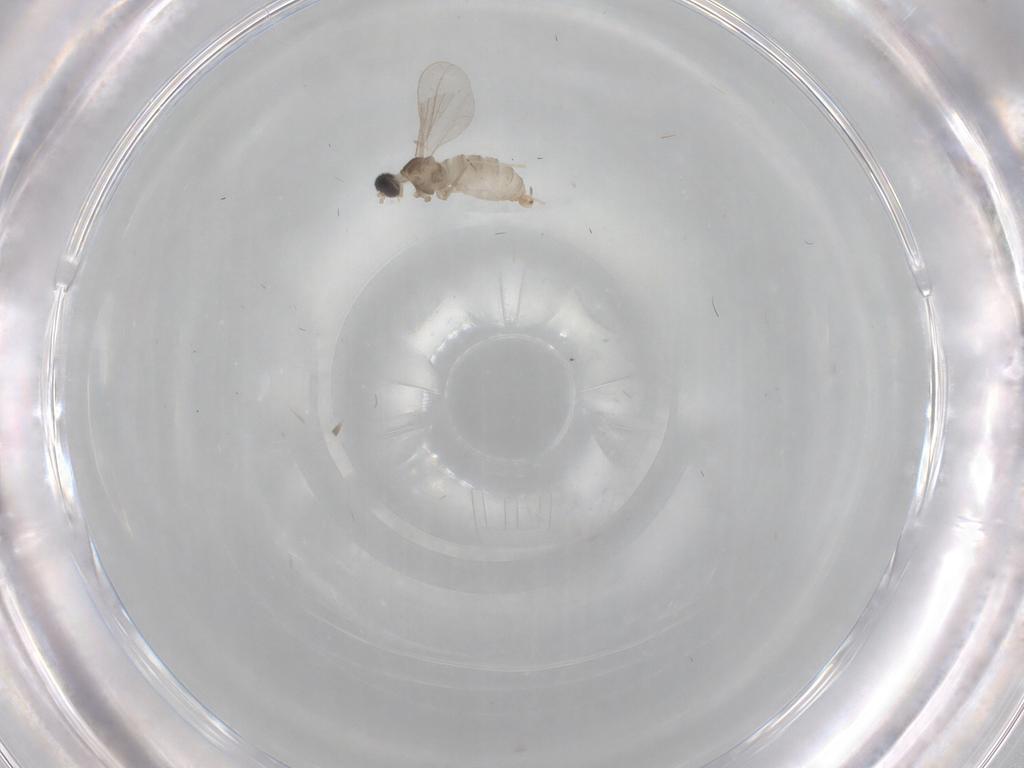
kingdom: Animalia
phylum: Arthropoda
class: Insecta
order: Diptera
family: Cecidomyiidae
